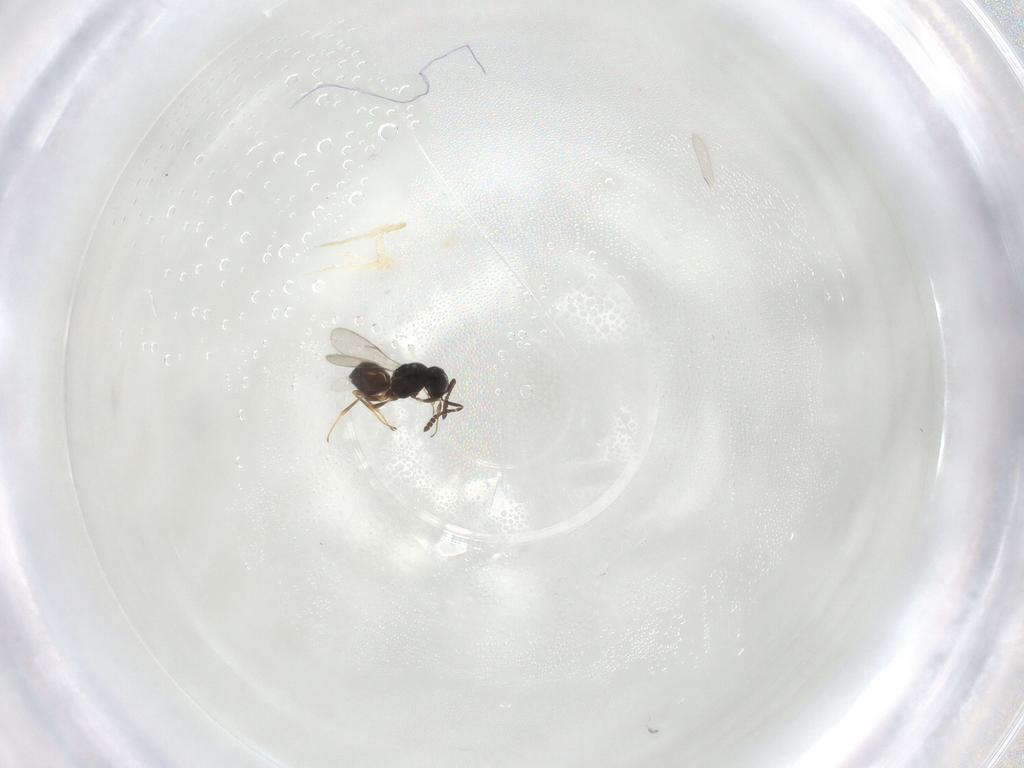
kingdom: Animalia
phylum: Arthropoda
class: Insecta
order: Hymenoptera
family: Scelionidae
